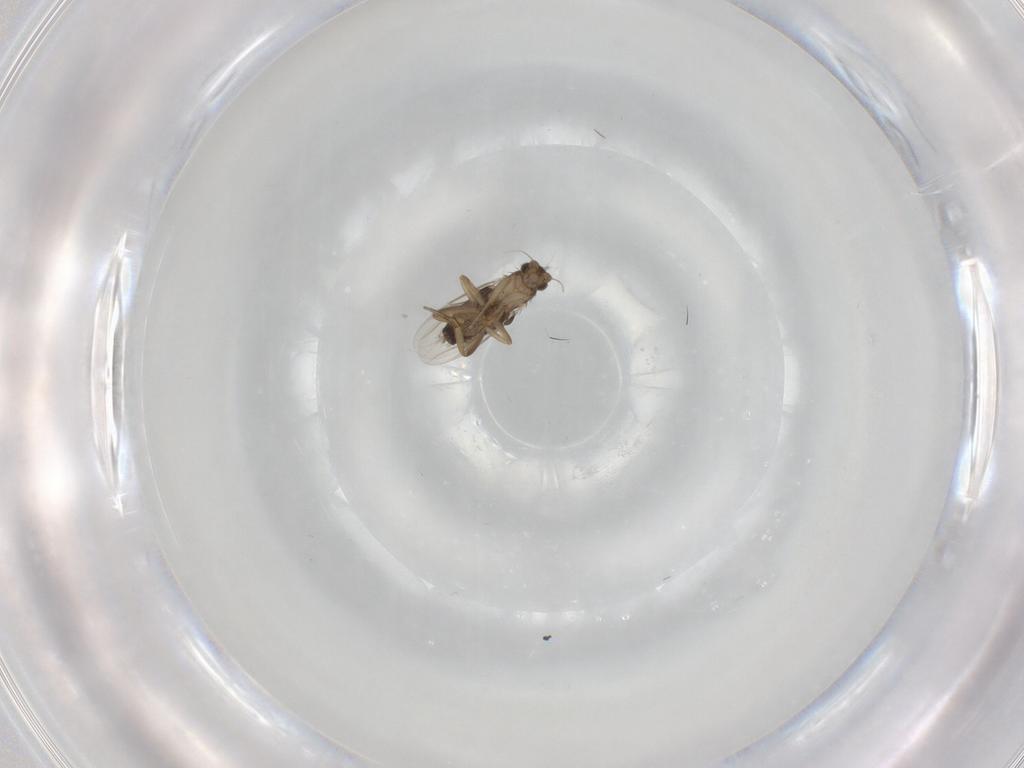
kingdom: Animalia
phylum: Arthropoda
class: Insecta
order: Diptera
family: Phoridae
